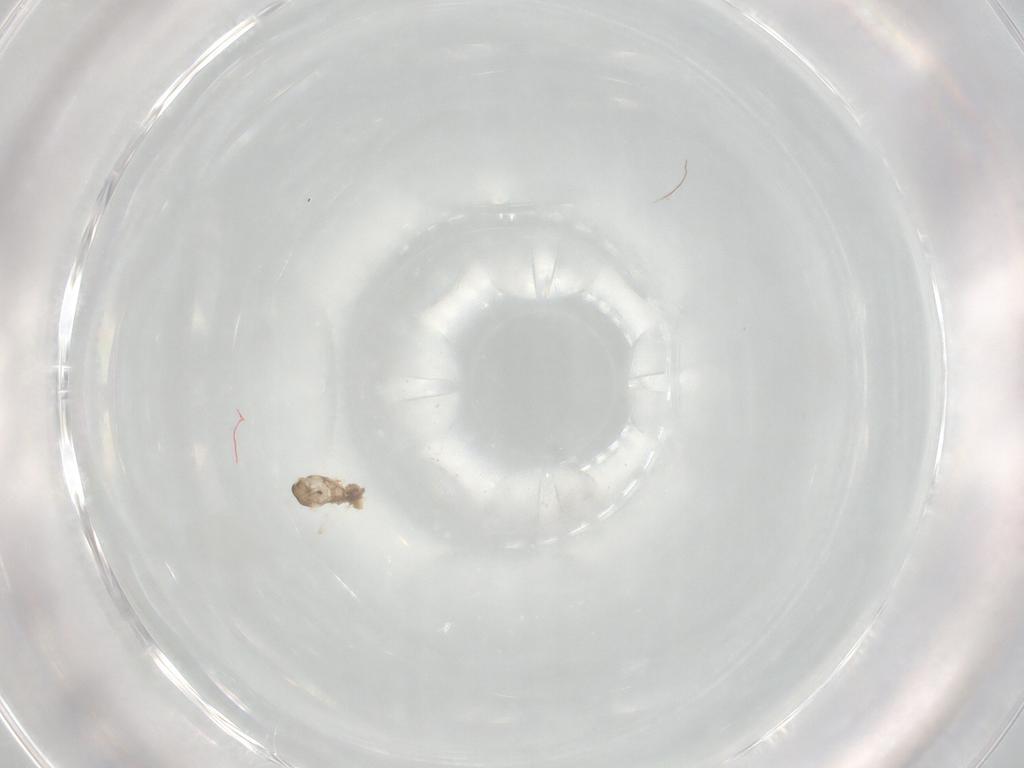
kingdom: Animalia
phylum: Arthropoda
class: Insecta
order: Diptera
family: Cecidomyiidae
